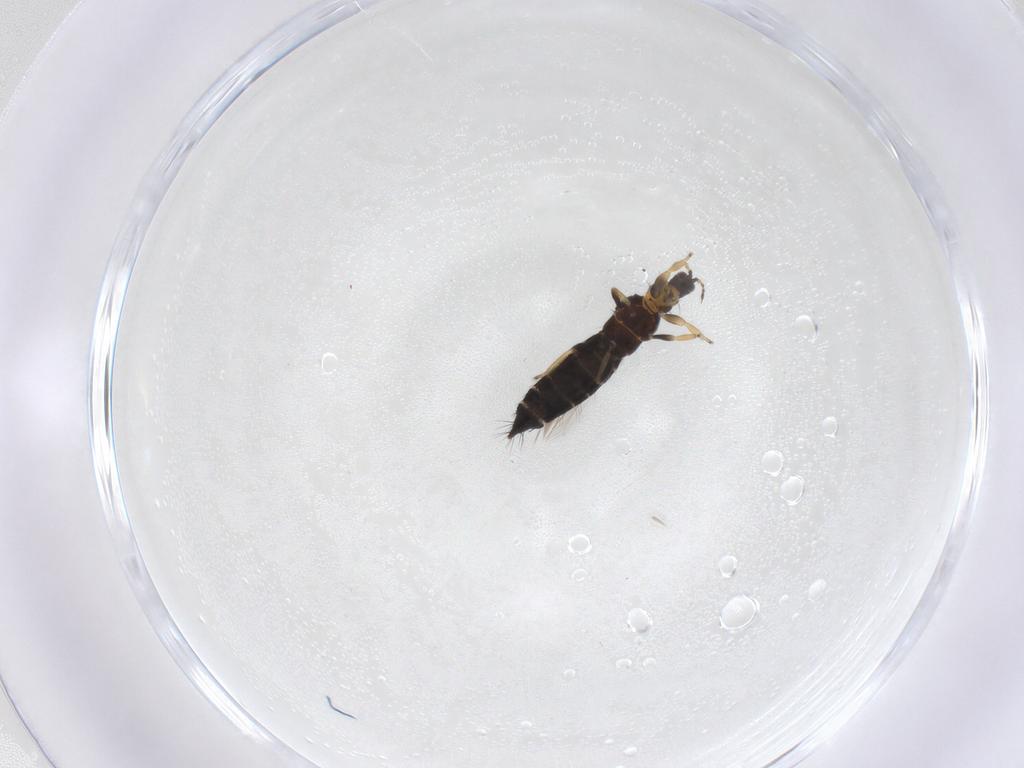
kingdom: Animalia
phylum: Arthropoda
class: Insecta
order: Thysanoptera
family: Thripidae
